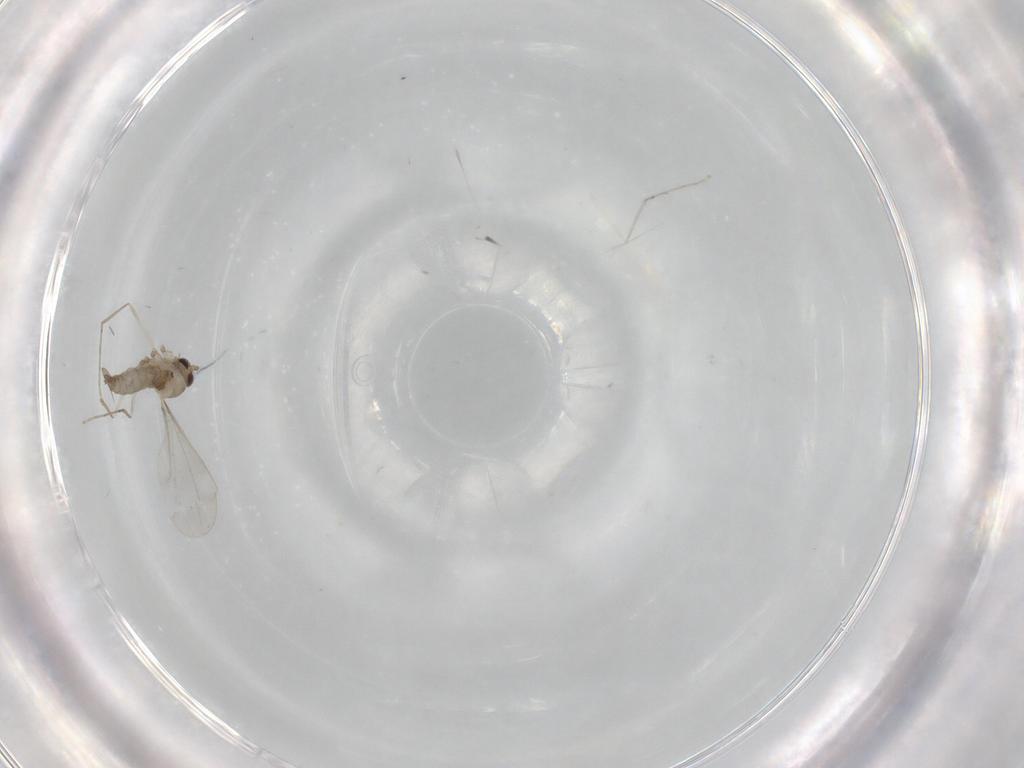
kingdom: Animalia
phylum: Arthropoda
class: Insecta
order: Diptera
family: Cecidomyiidae
